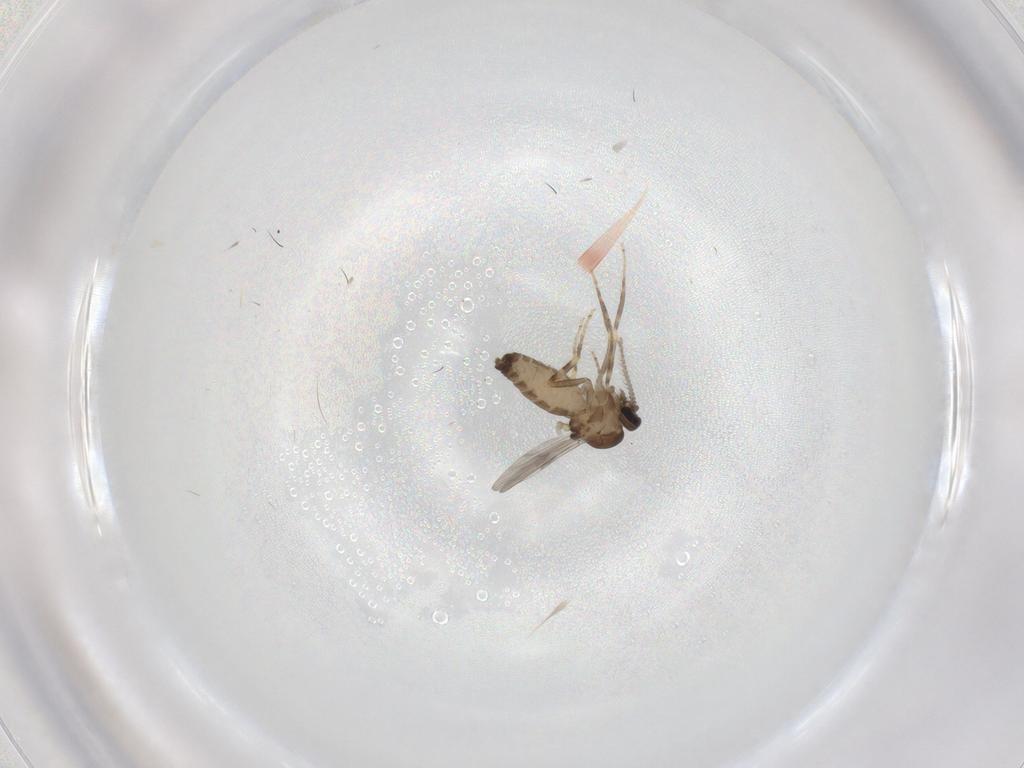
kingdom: Animalia
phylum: Arthropoda
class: Insecta
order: Diptera
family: Ceratopogonidae
